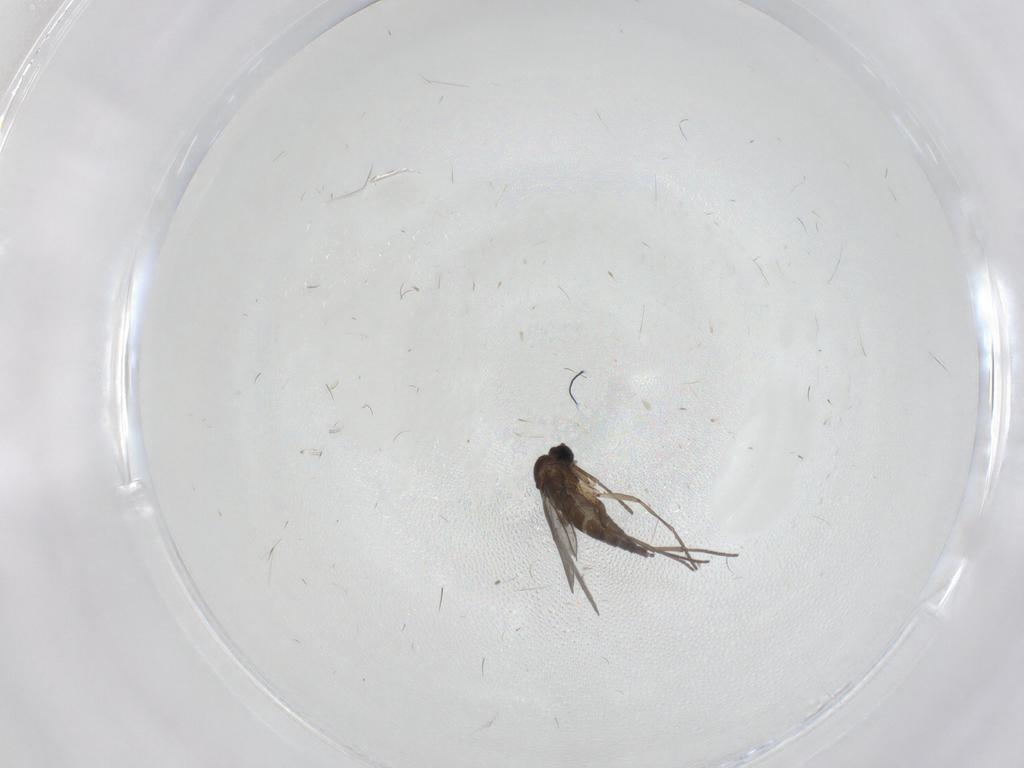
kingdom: Animalia
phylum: Arthropoda
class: Insecta
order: Diptera
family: Sciaridae
